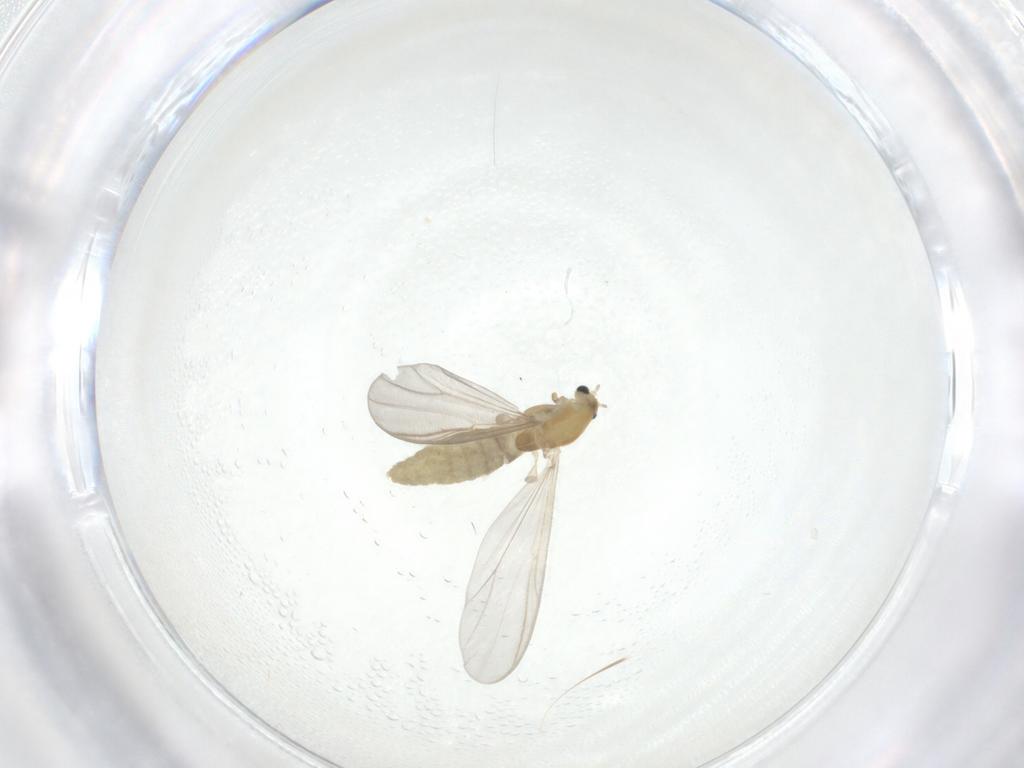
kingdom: Animalia
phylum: Arthropoda
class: Insecta
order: Diptera
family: Chironomidae
